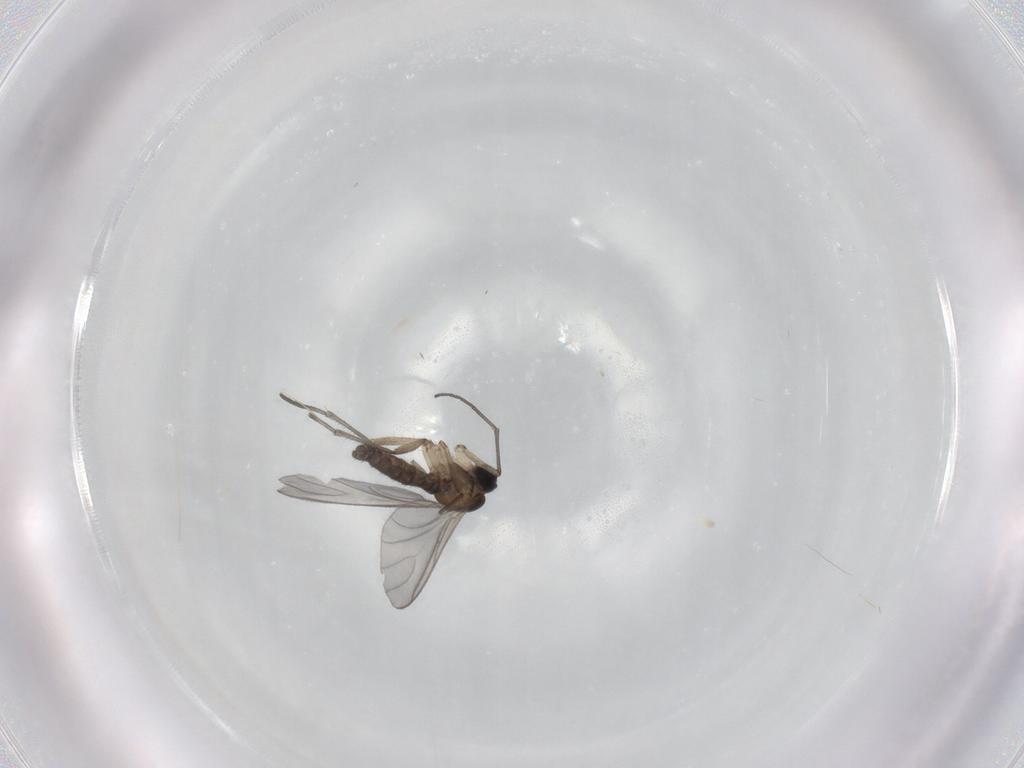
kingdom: Animalia
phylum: Arthropoda
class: Insecta
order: Diptera
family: Sciaridae
